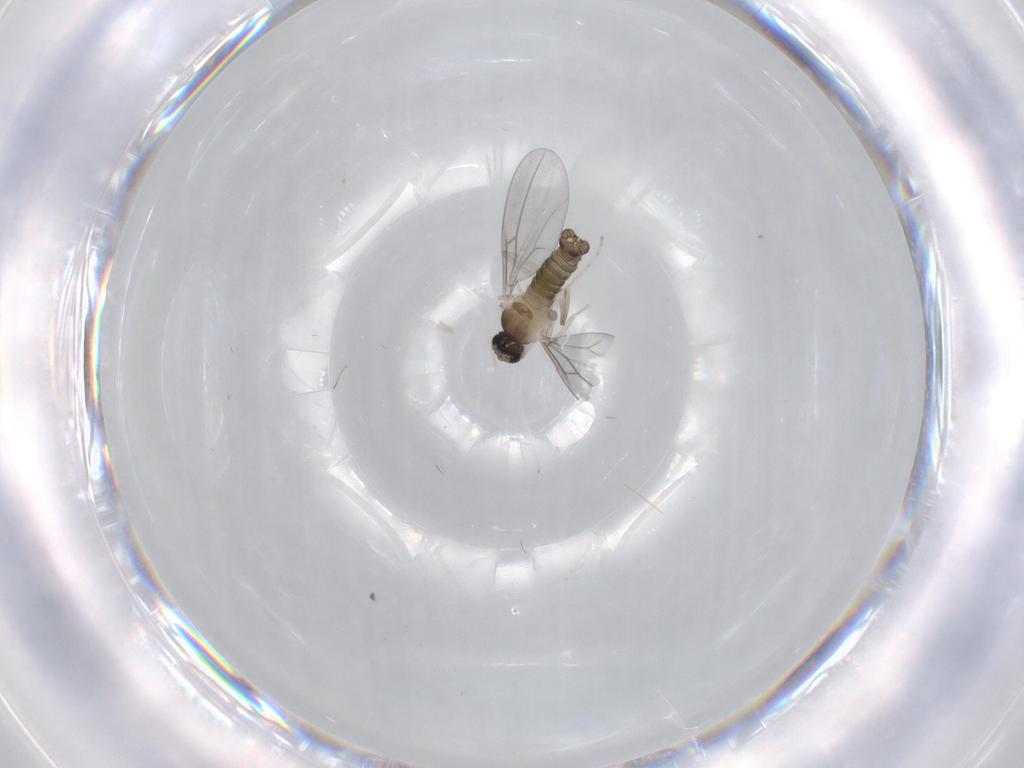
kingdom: Animalia
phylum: Arthropoda
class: Insecta
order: Diptera
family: Cecidomyiidae
